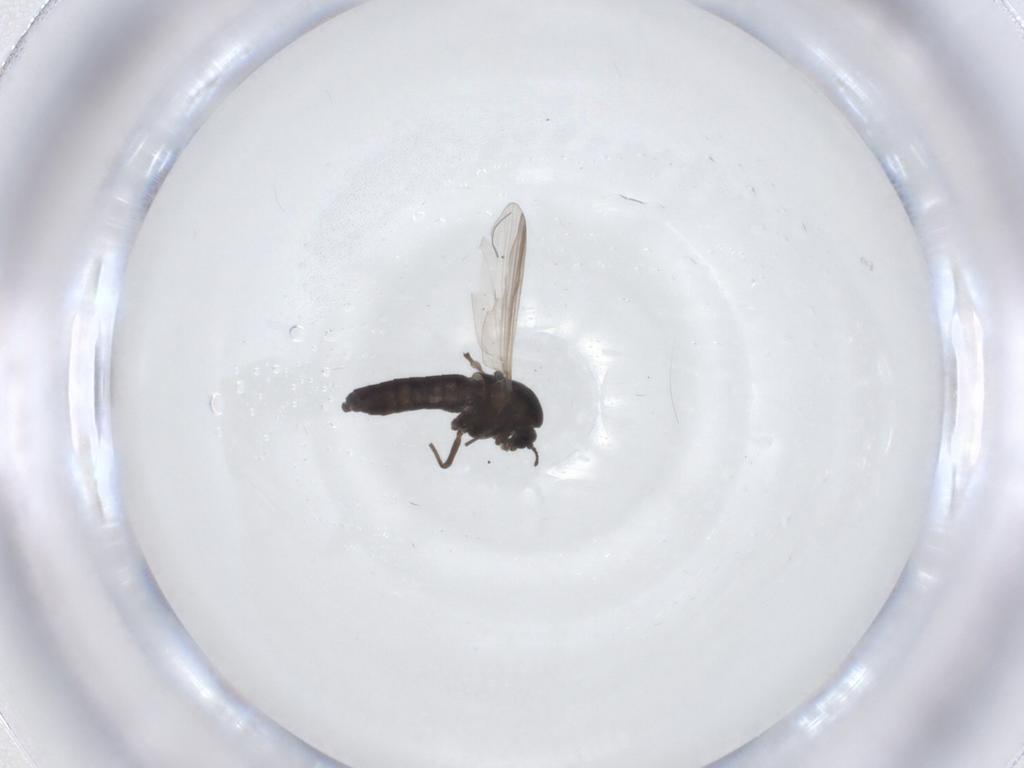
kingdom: Animalia
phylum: Arthropoda
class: Insecta
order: Diptera
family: Chironomidae
